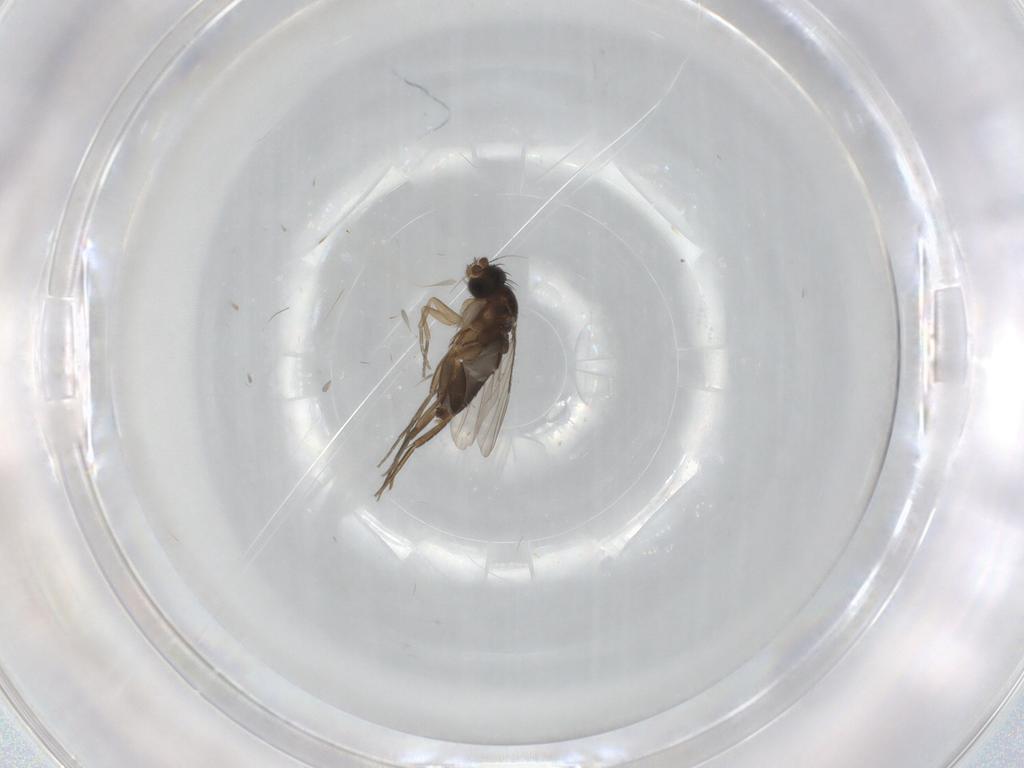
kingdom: Animalia
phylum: Arthropoda
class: Insecta
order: Diptera
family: Phoridae
